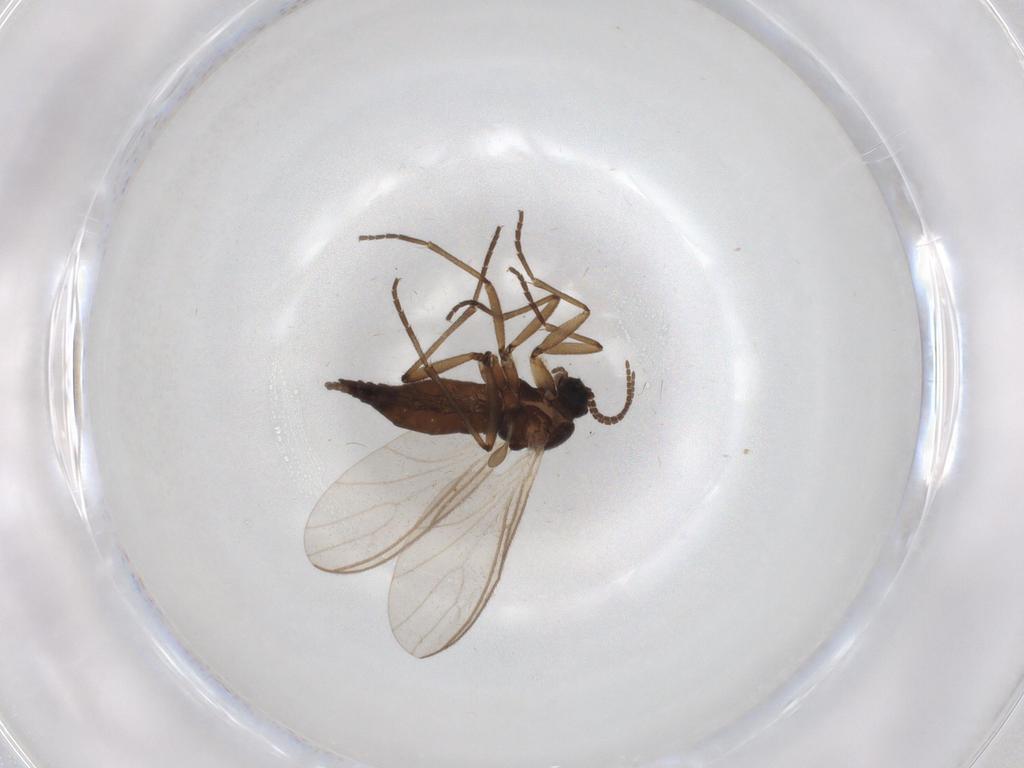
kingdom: Animalia
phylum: Arthropoda
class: Insecta
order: Diptera
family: Sciaridae
